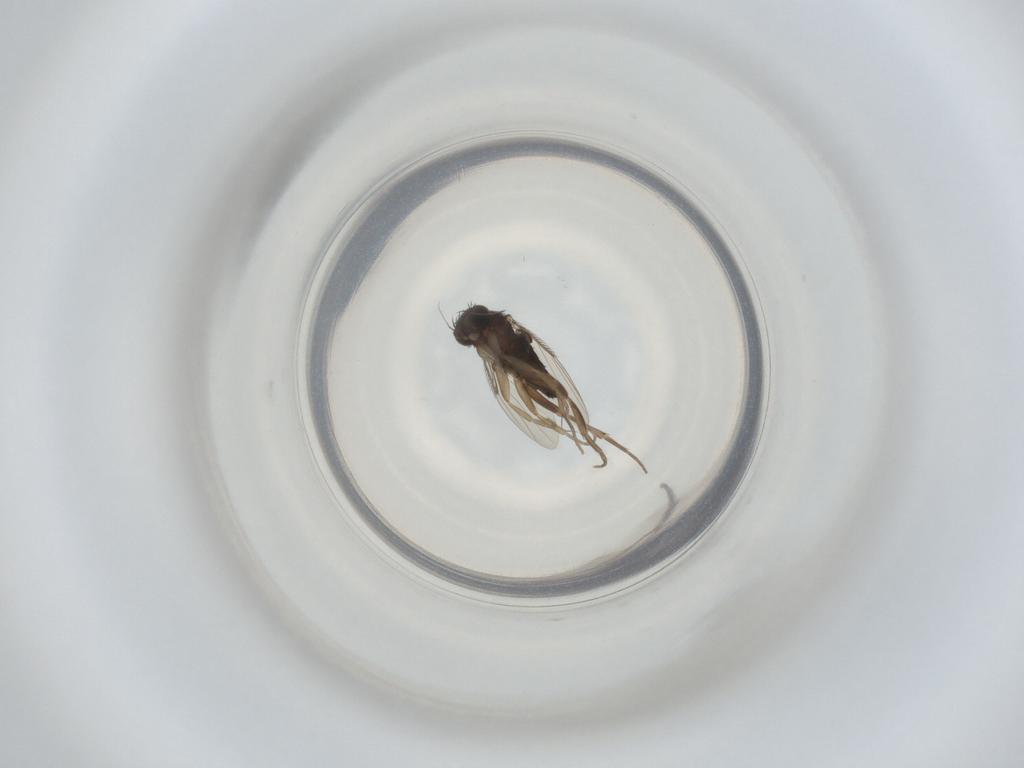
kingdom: Animalia
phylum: Arthropoda
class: Insecta
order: Diptera
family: Phoridae
